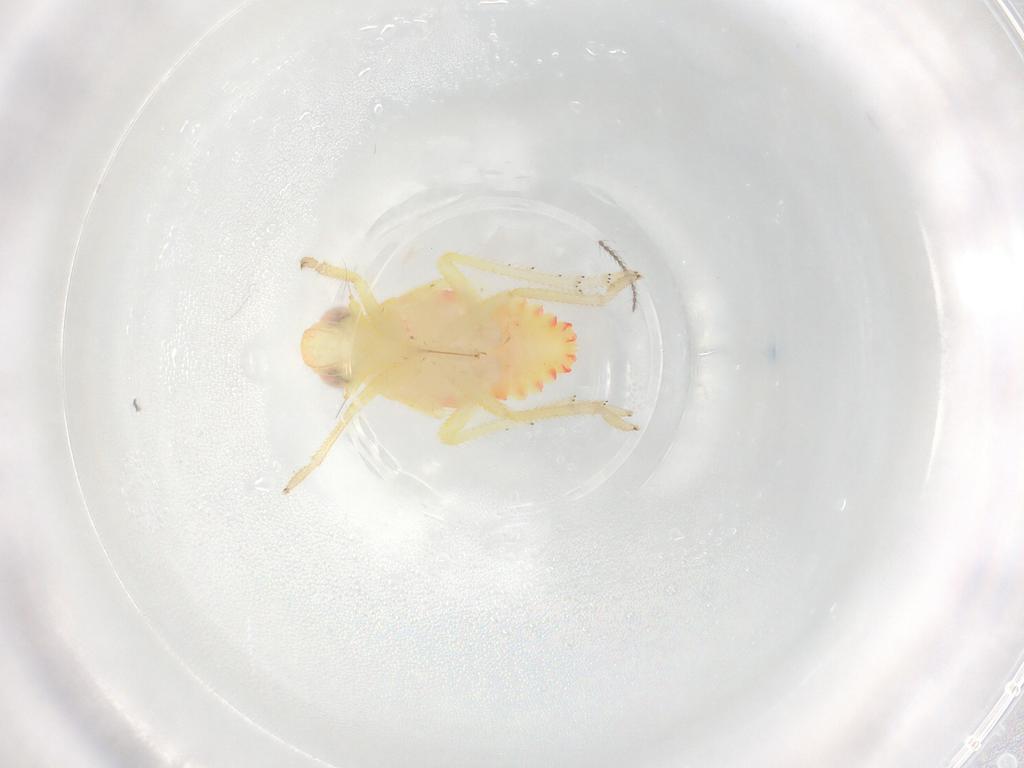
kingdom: Animalia
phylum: Arthropoda
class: Insecta
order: Hemiptera
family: Tropiduchidae
